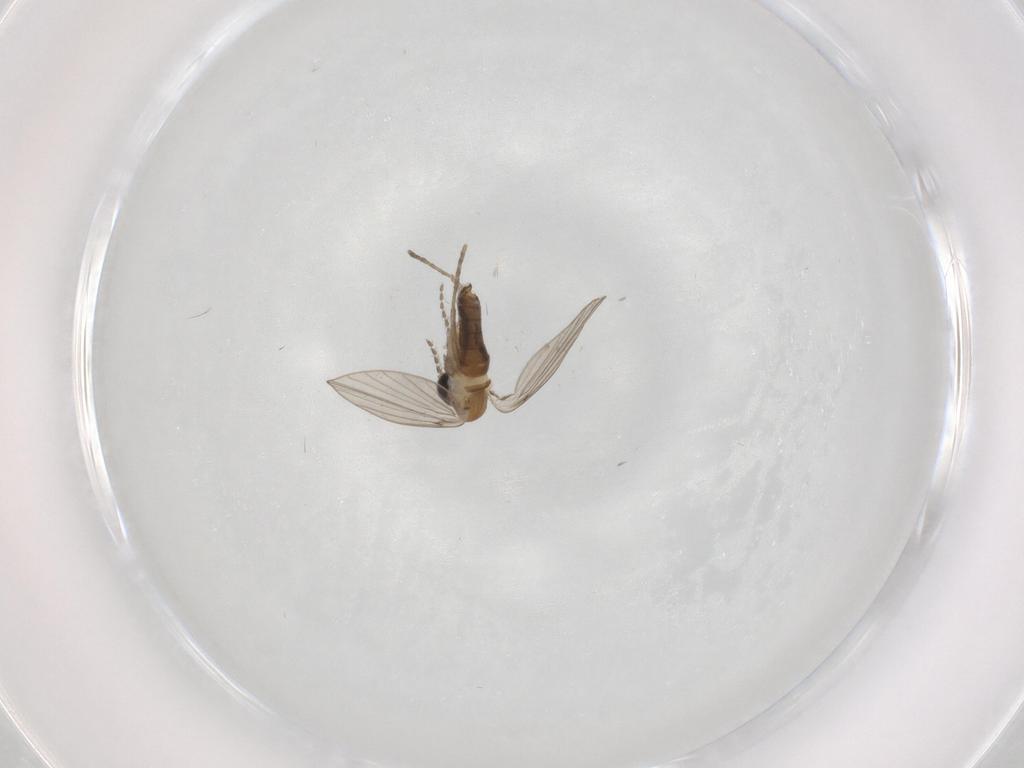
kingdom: Animalia
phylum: Arthropoda
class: Insecta
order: Diptera
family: Psychodidae
